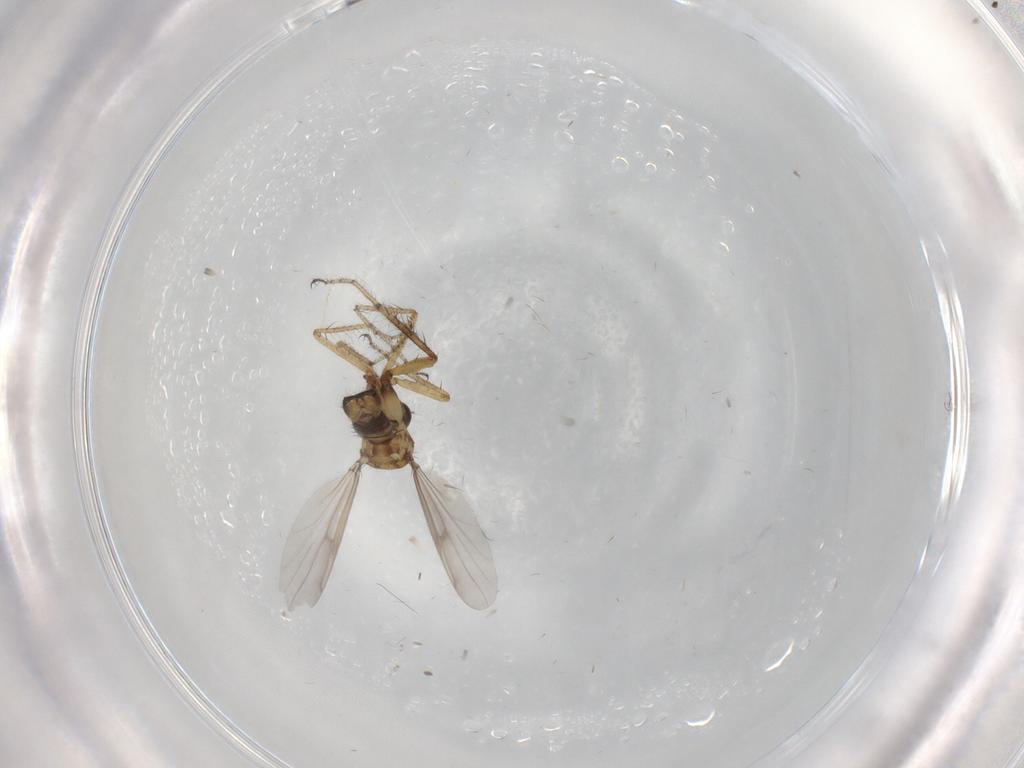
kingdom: Animalia
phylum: Arthropoda
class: Insecta
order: Diptera
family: Ceratopogonidae
